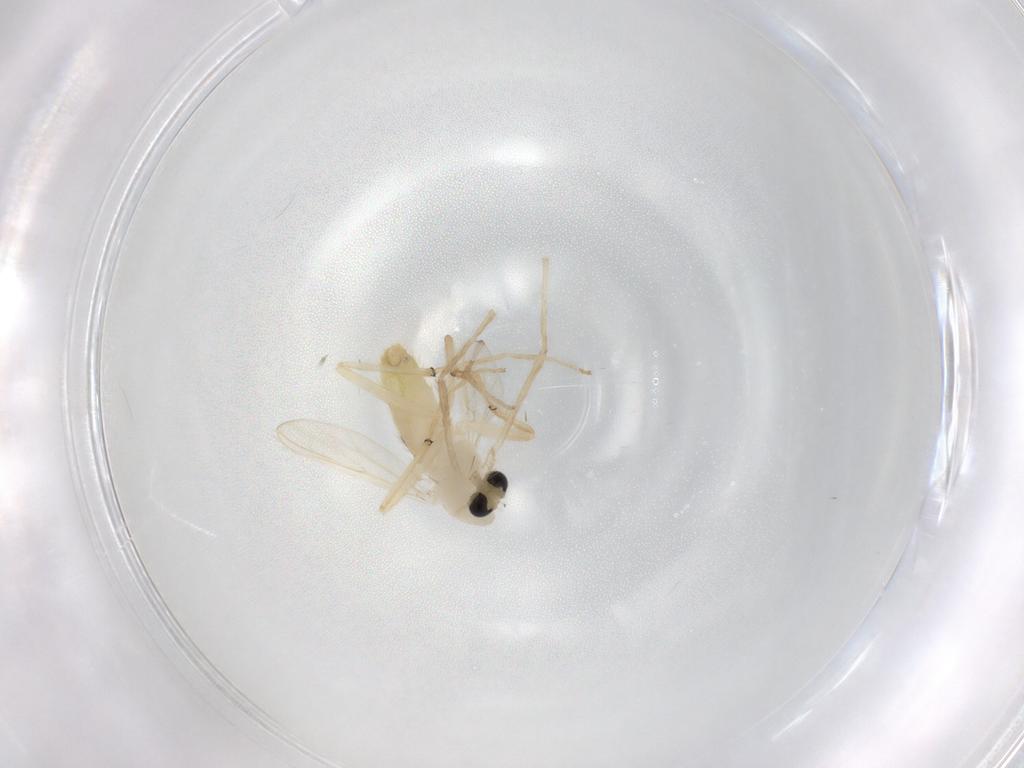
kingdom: Animalia
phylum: Arthropoda
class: Insecta
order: Diptera
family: Chironomidae
